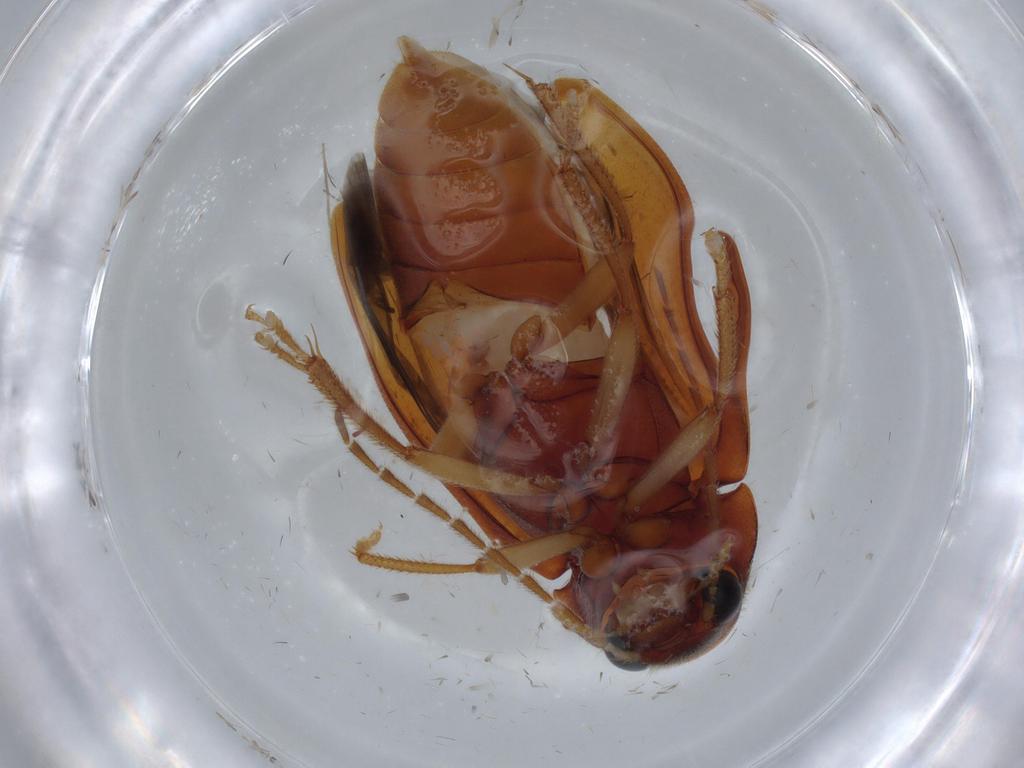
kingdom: Animalia
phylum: Arthropoda
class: Insecta
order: Coleoptera
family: Ptilodactylidae
